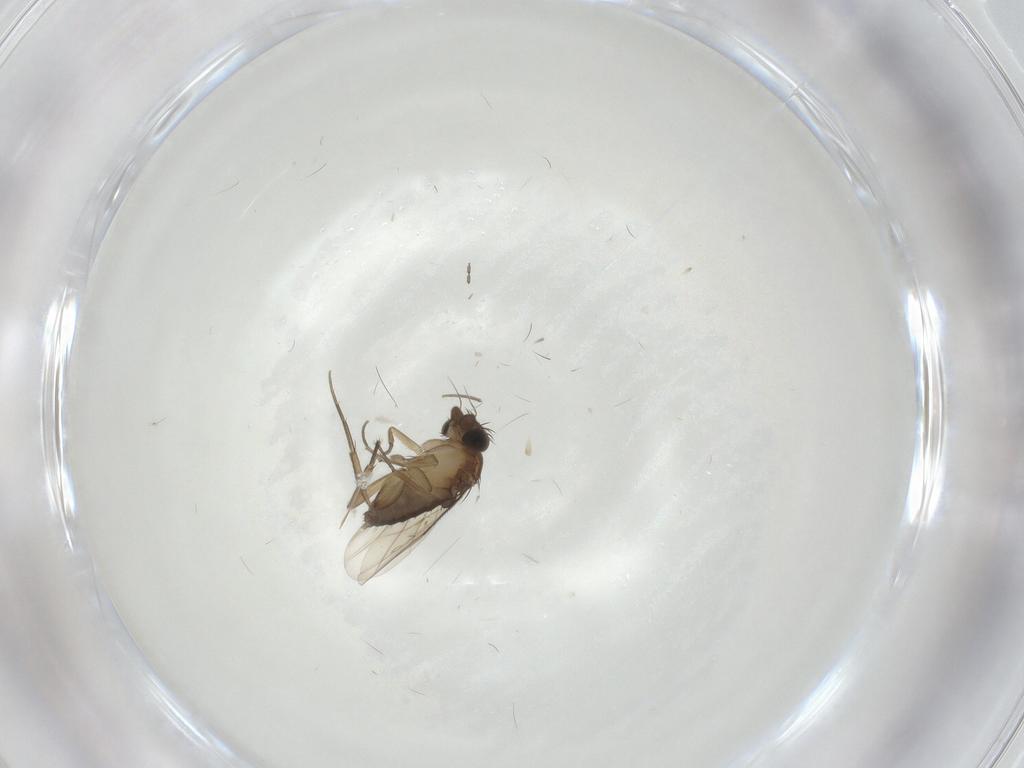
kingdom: Animalia
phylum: Arthropoda
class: Insecta
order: Diptera
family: Phoridae
